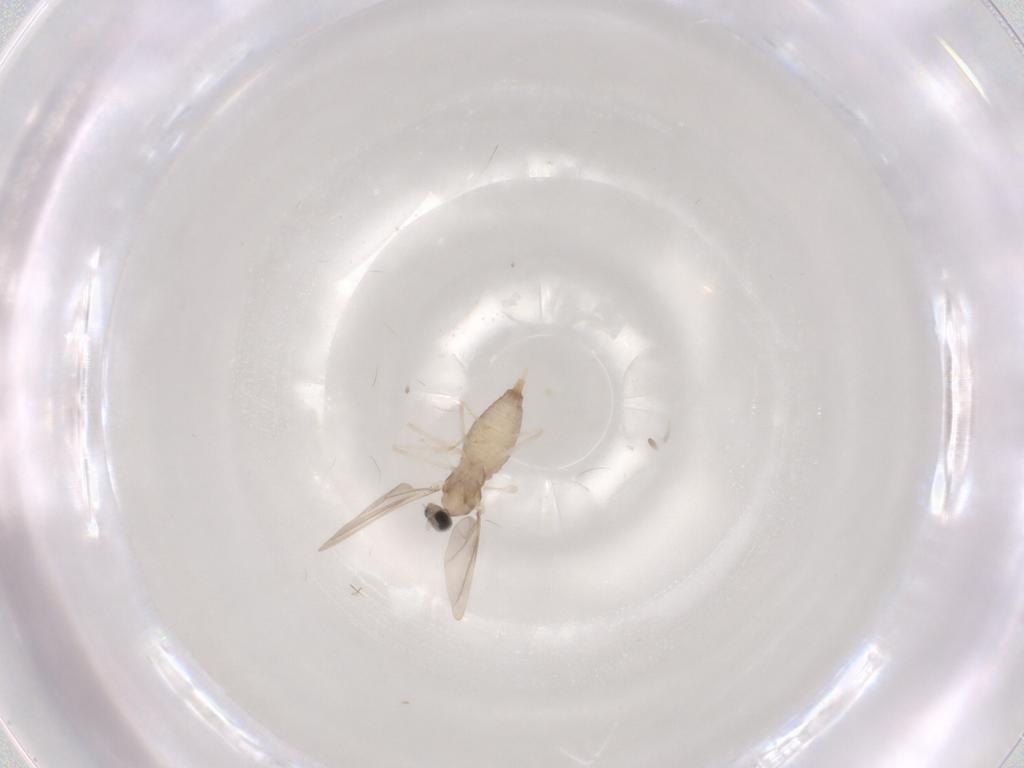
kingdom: Animalia
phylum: Arthropoda
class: Insecta
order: Diptera
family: Cecidomyiidae
